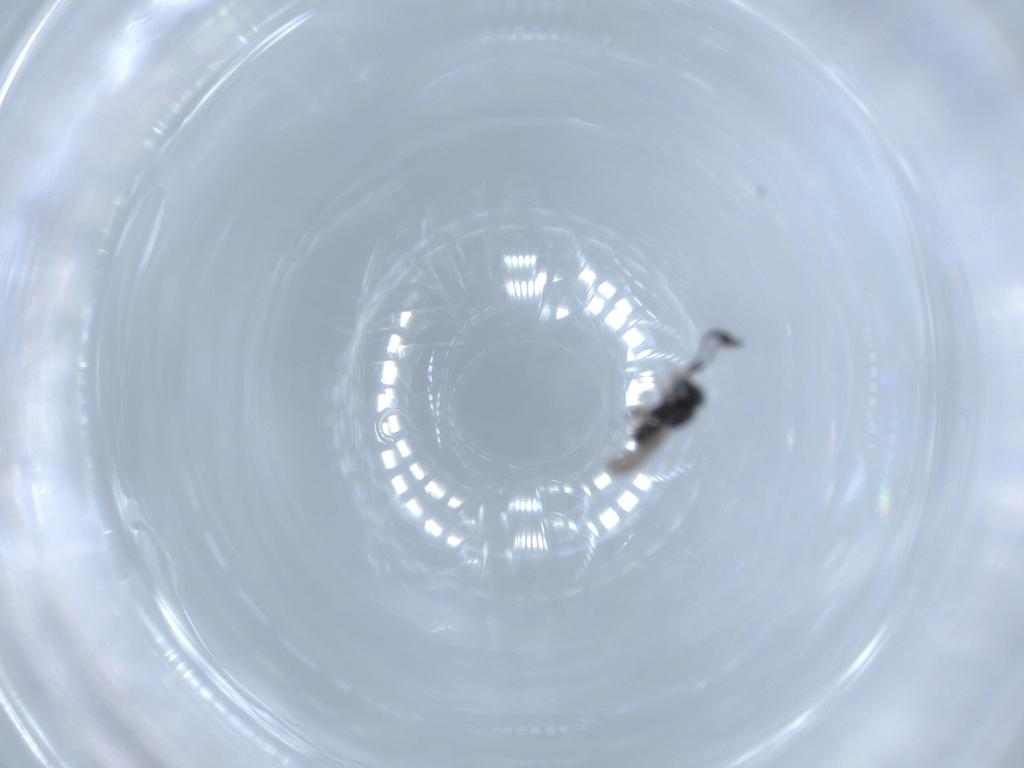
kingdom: Animalia
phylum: Arthropoda
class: Insecta
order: Hymenoptera
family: Scelionidae
